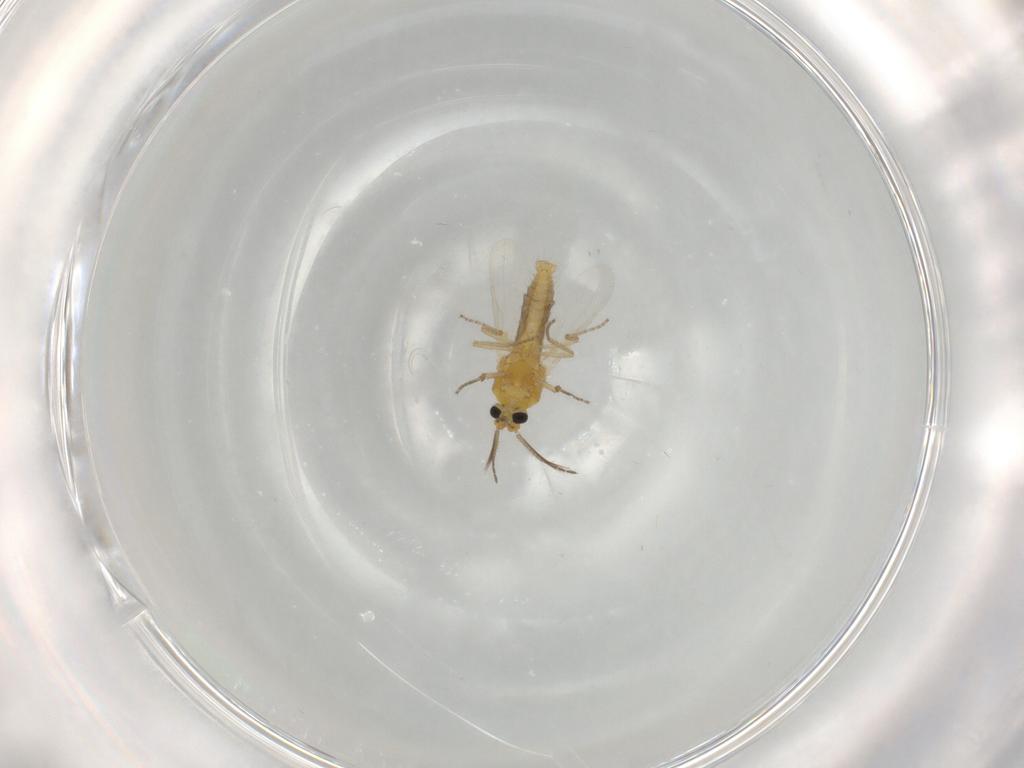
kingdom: Animalia
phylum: Arthropoda
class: Insecta
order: Diptera
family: Ceratopogonidae
